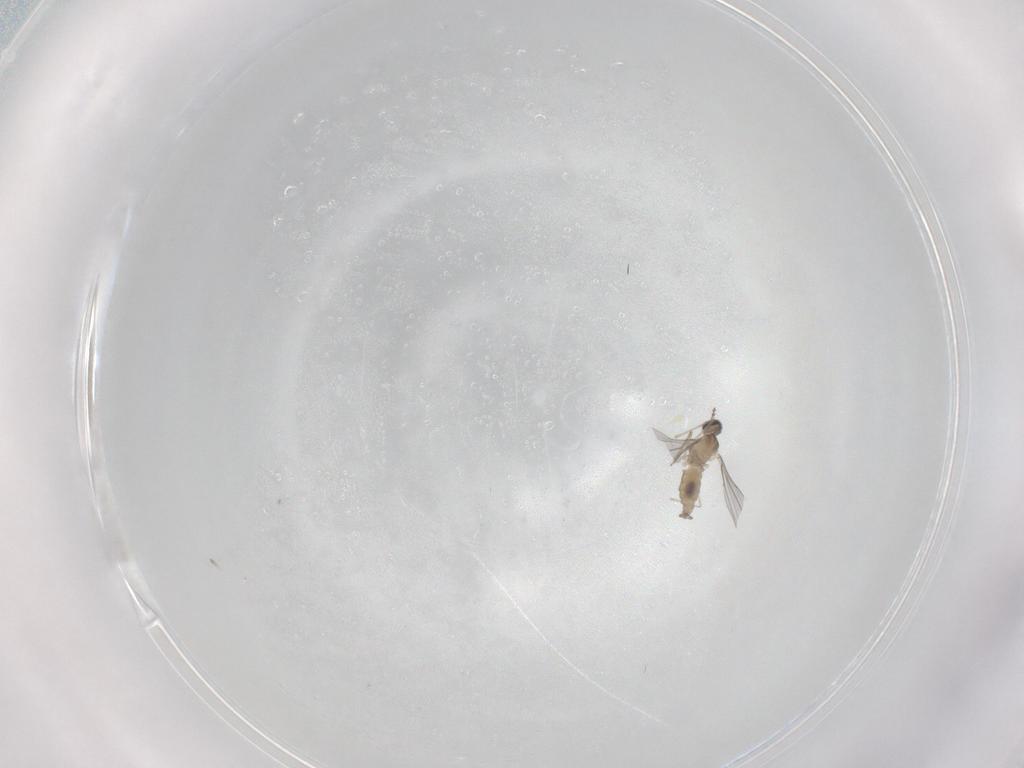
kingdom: Animalia
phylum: Arthropoda
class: Insecta
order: Diptera
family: Cecidomyiidae
